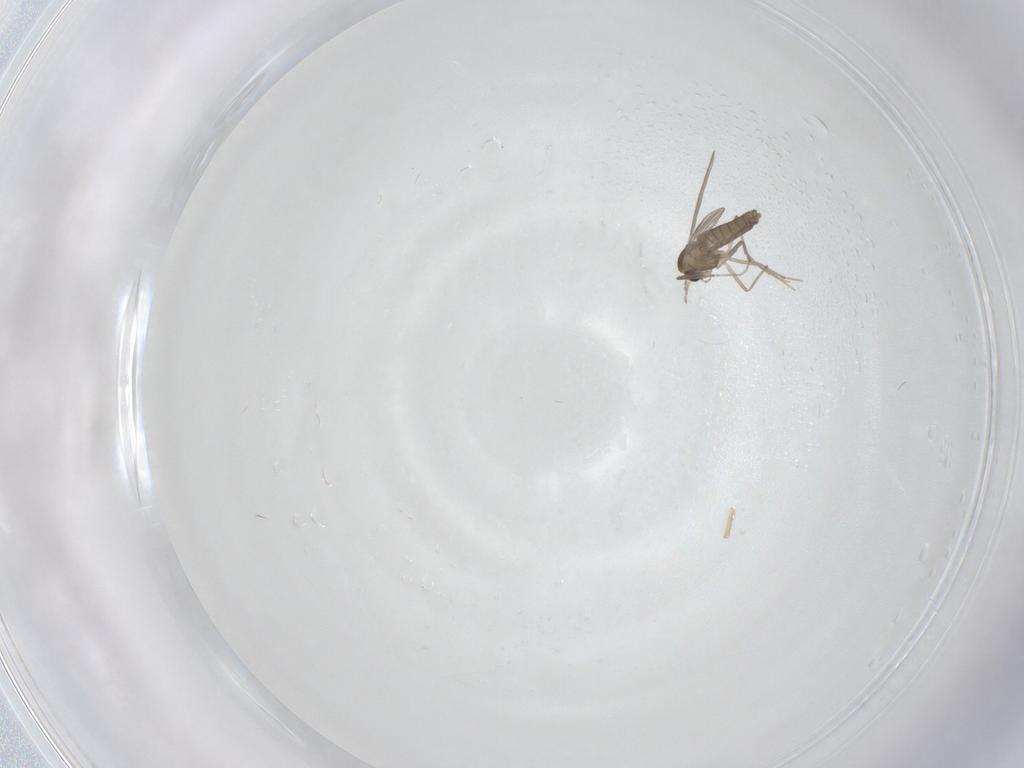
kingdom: Animalia
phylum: Arthropoda
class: Insecta
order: Diptera
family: Chironomidae
